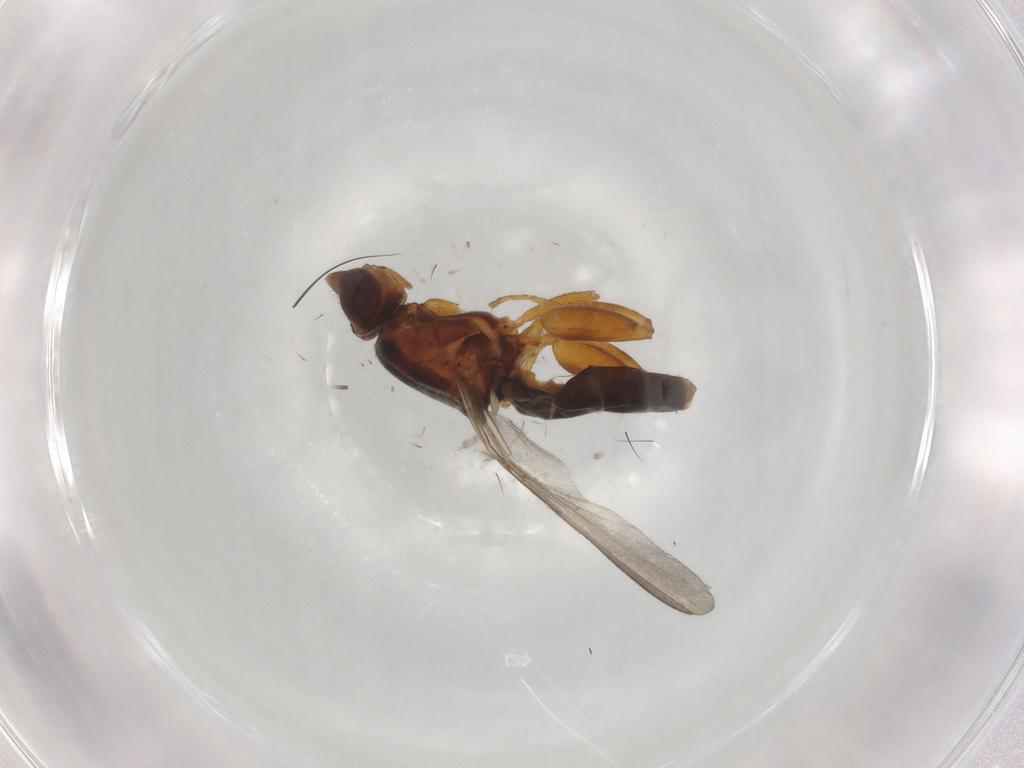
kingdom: Animalia
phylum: Arthropoda
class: Insecta
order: Diptera
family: Chloropidae
